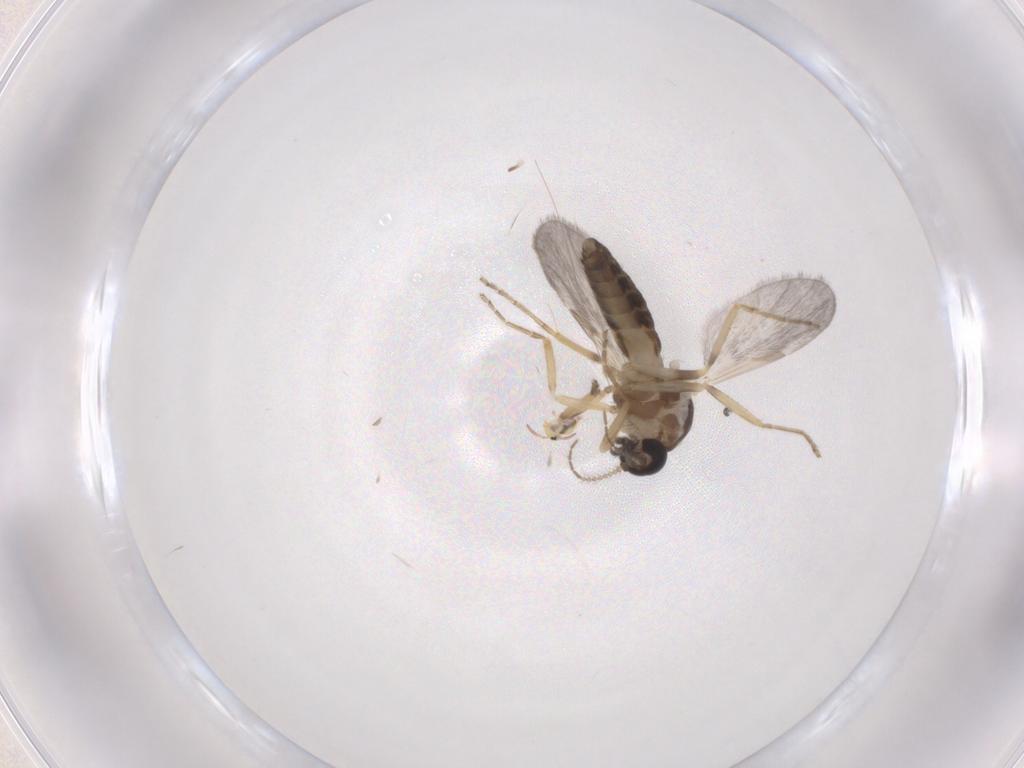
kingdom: Animalia
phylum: Arthropoda
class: Insecta
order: Diptera
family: Ceratopogonidae
